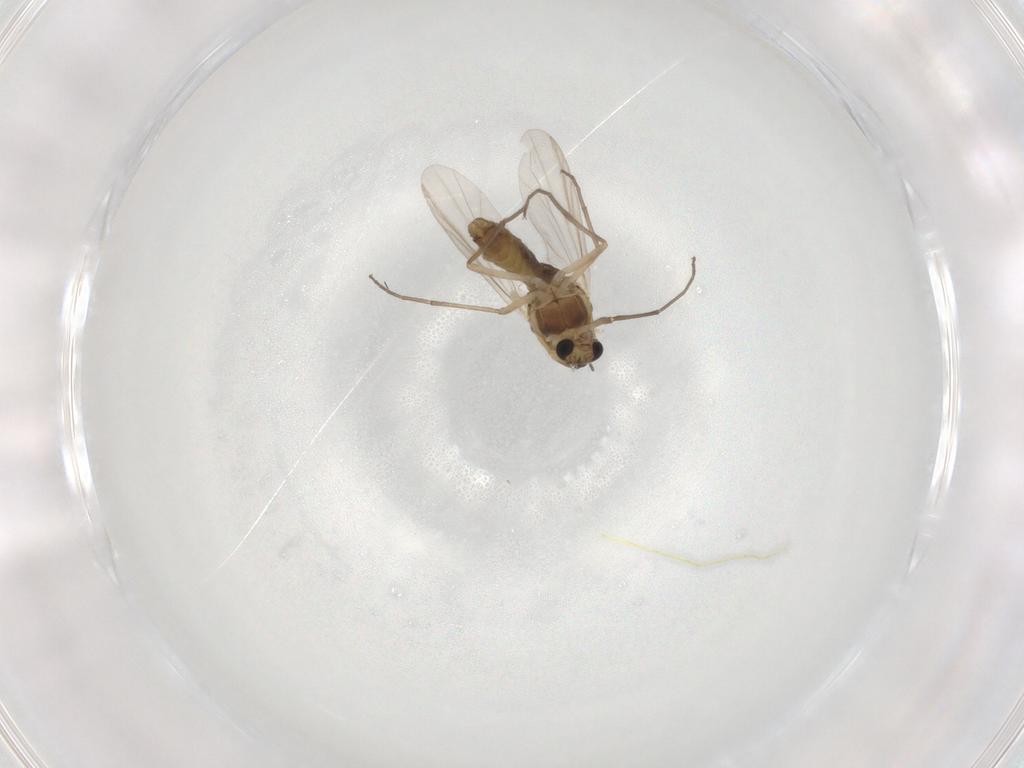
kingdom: Animalia
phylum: Arthropoda
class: Insecta
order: Diptera
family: Chironomidae
